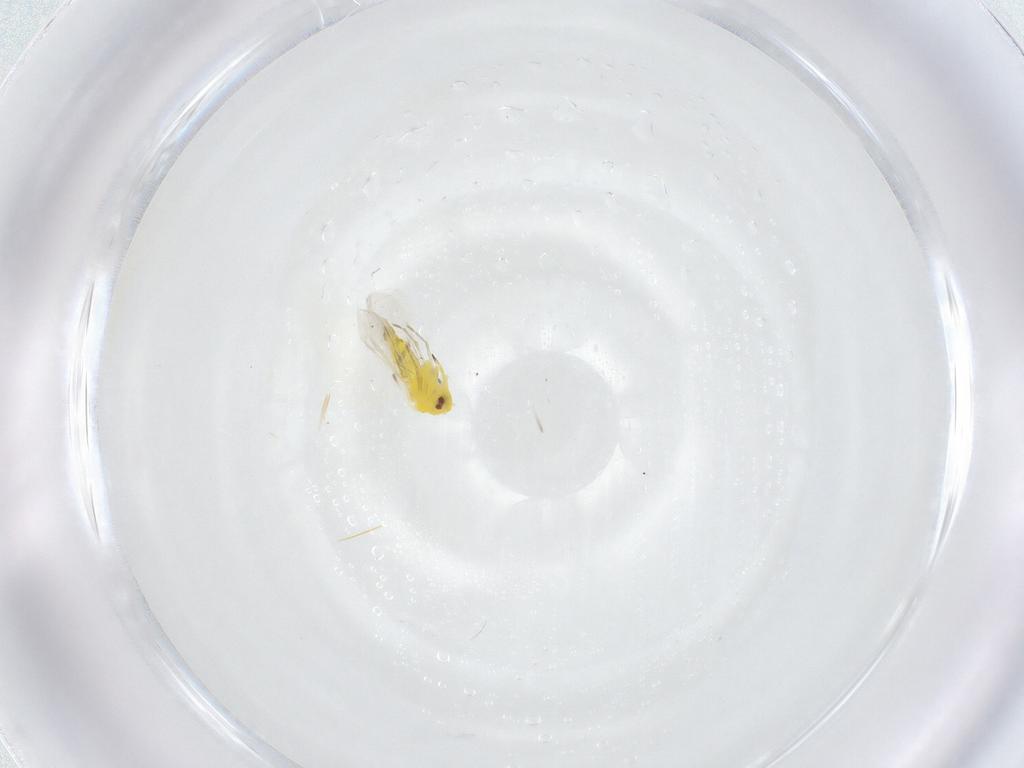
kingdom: Animalia
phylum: Arthropoda
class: Insecta
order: Hemiptera
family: Aleyrodidae
